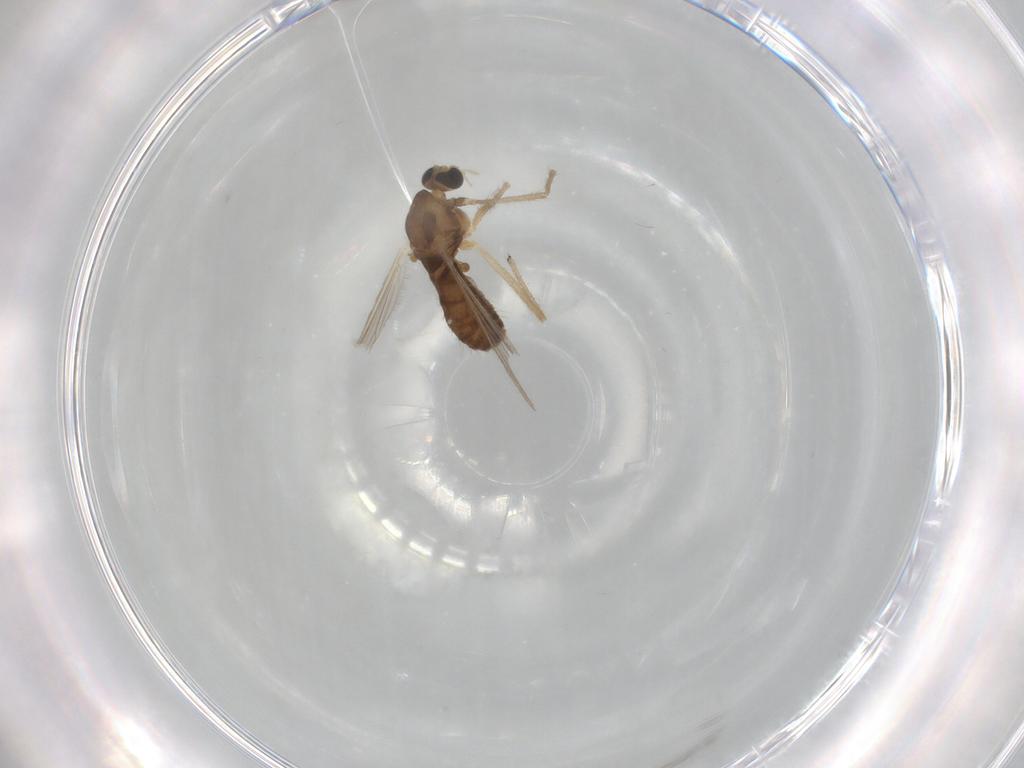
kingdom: Animalia
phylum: Arthropoda
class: Insecta
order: Diptera
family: Chironomidae
